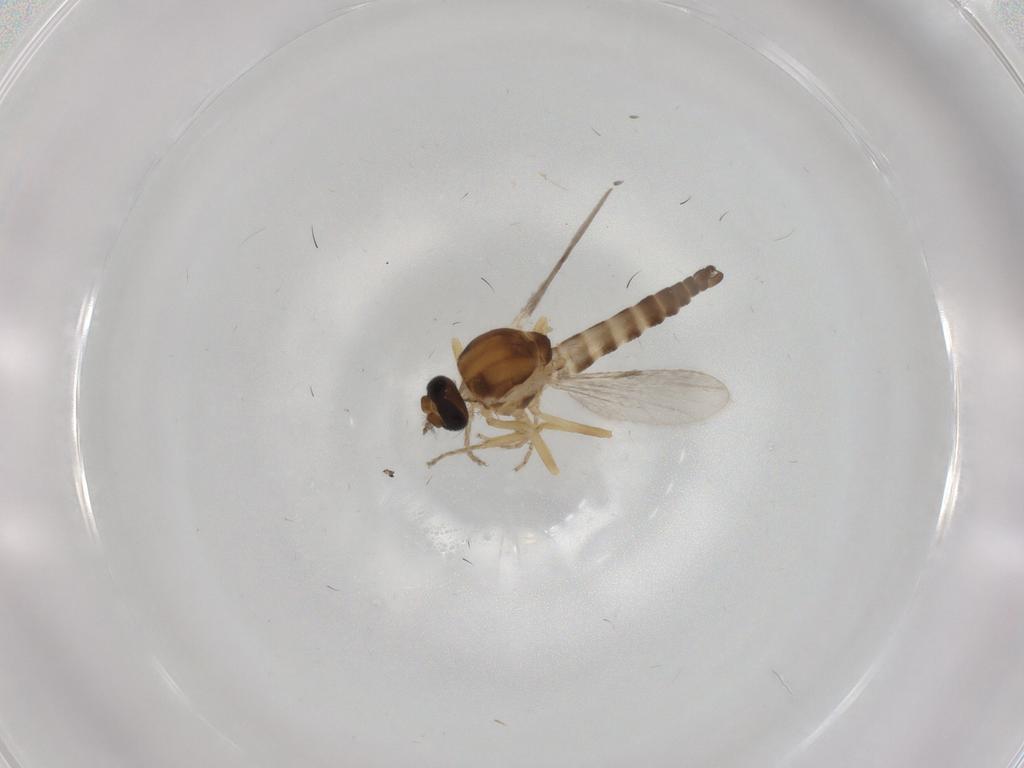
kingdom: Animalia
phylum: Arthropoda
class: Insecta
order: Diptera
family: Ceratopogonidae
